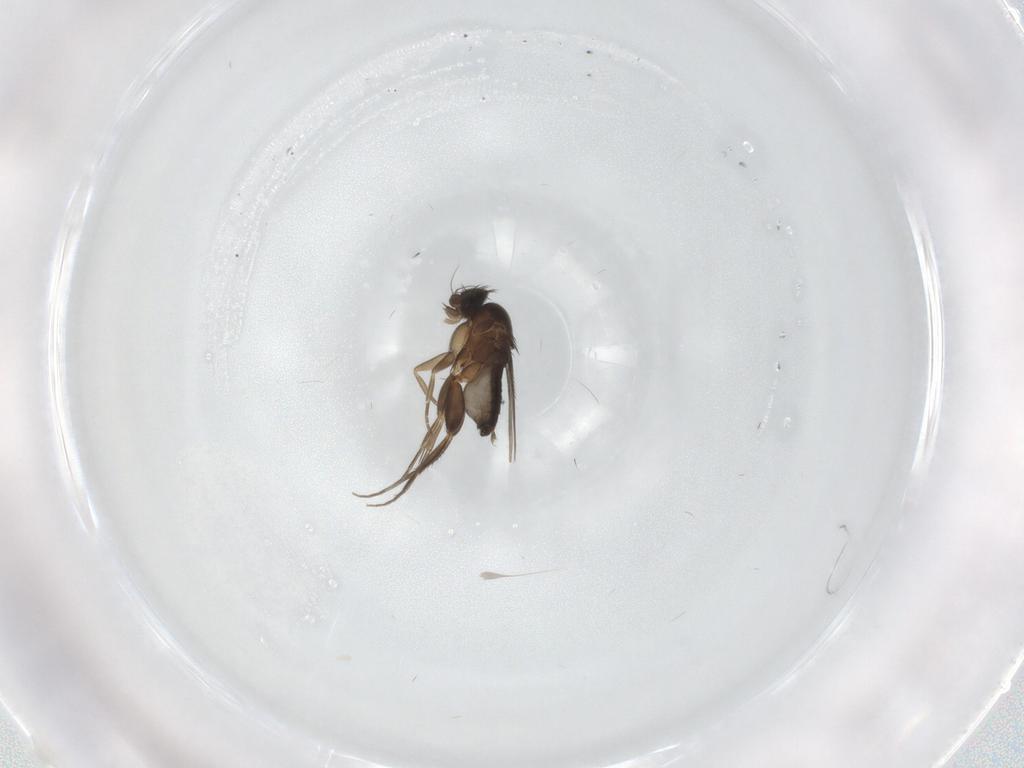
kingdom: Animalia
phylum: Arthropoda
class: Insecta
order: Diptera
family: Phoridae
